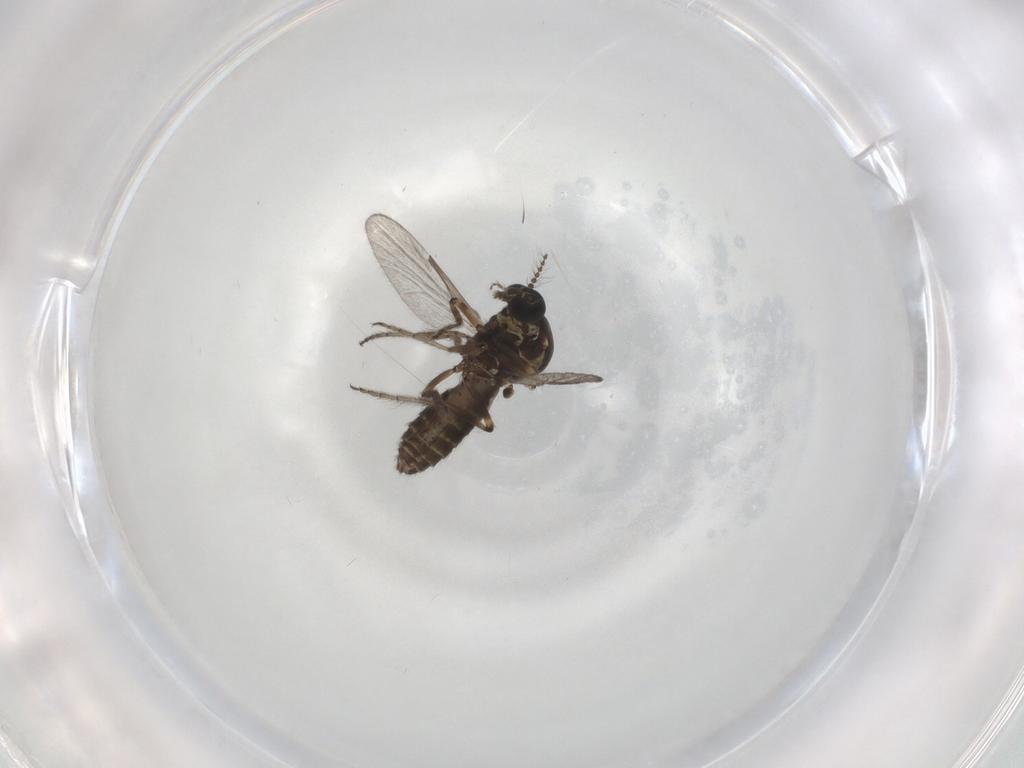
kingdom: Animalia
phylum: Arthropoda
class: Insecta
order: Diptera
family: Ceratopogonidae
